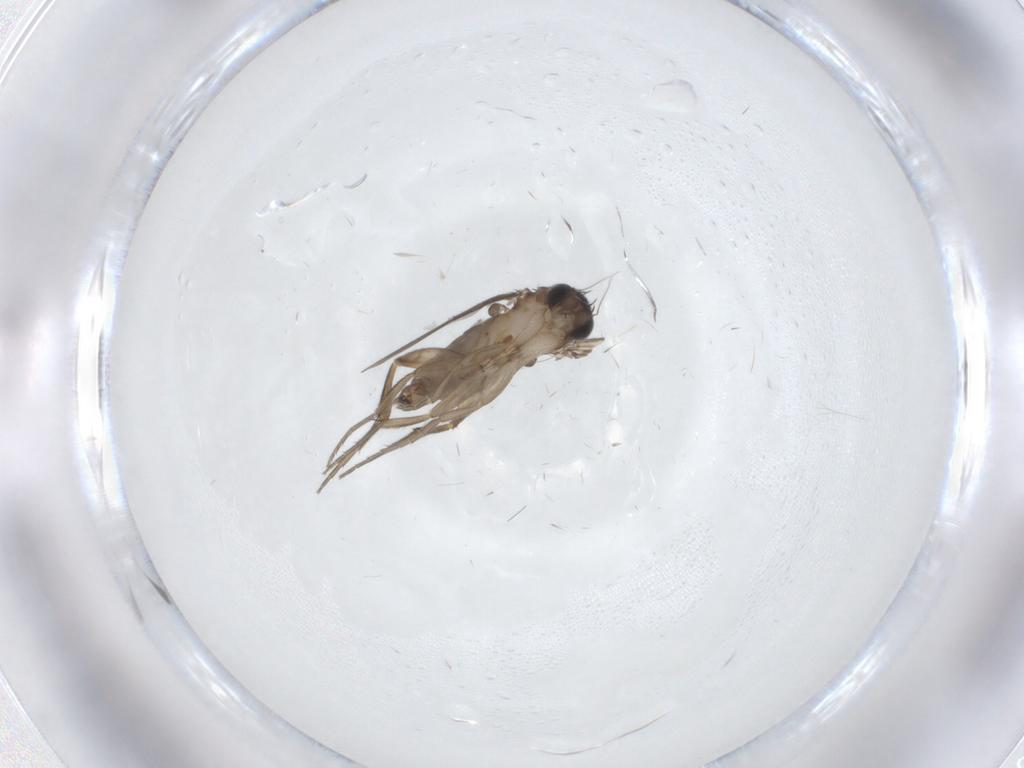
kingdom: Animalia
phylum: Arthropoda
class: Insecta
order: Diptera
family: Phoridae
